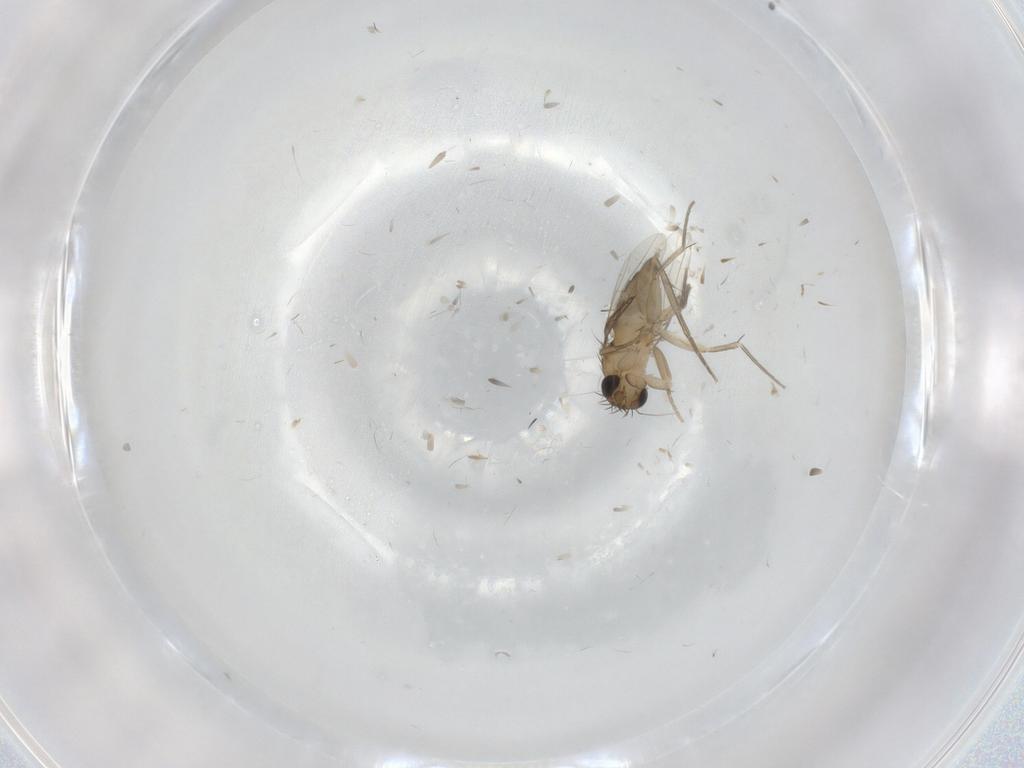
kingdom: Animalia
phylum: Arthropoda
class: Insecta
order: Diptera
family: Phoridae
